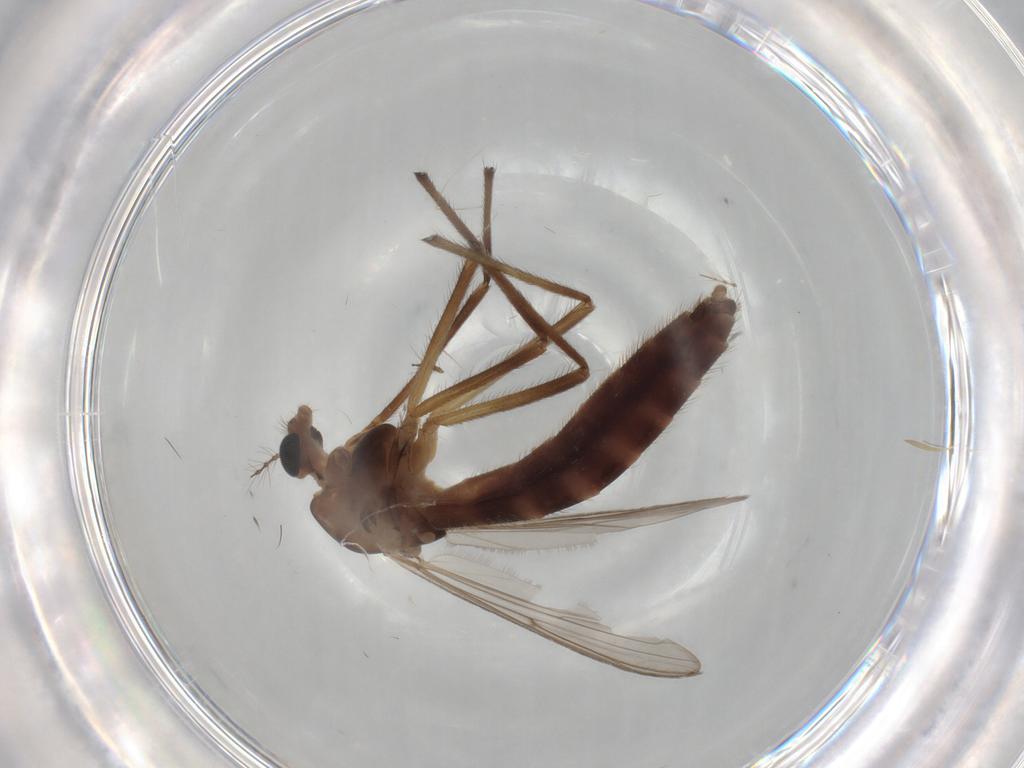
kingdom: Animalia
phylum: Arthropoda
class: Insecta
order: Diptera
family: Chironomidae
